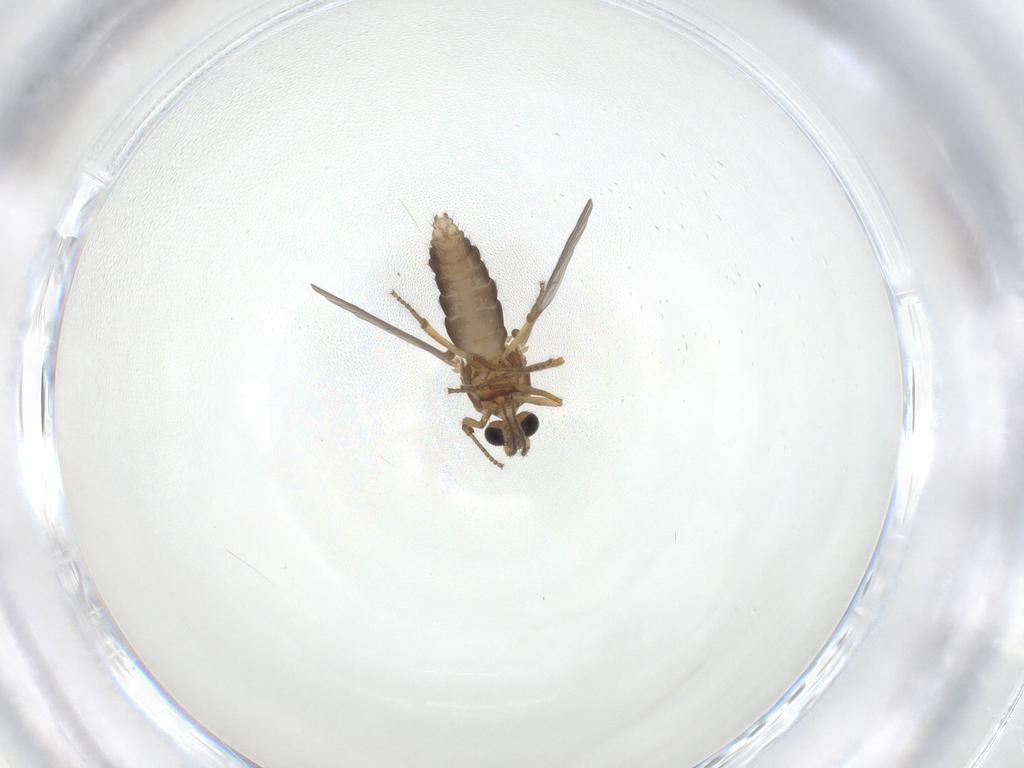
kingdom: Animalia
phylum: Arthropoda
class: Insecta
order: Diptera
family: Ceratopogonidae
